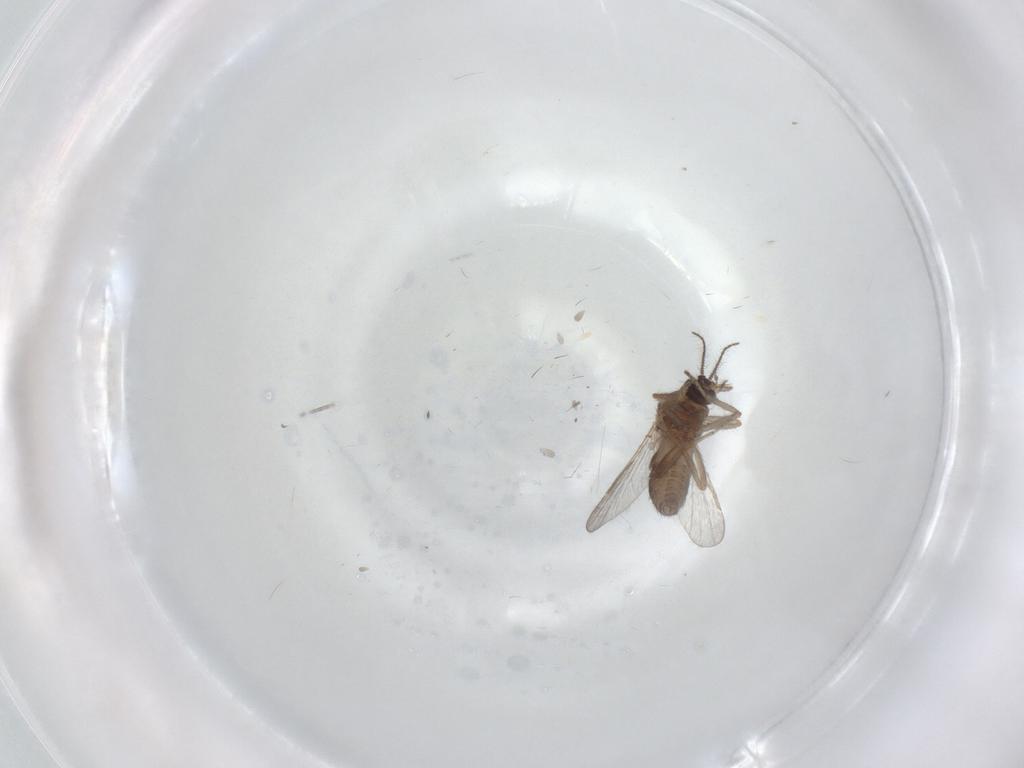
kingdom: Animalia
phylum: Arthropoda
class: Insecta
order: Diptera
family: Ceratopogonidae
